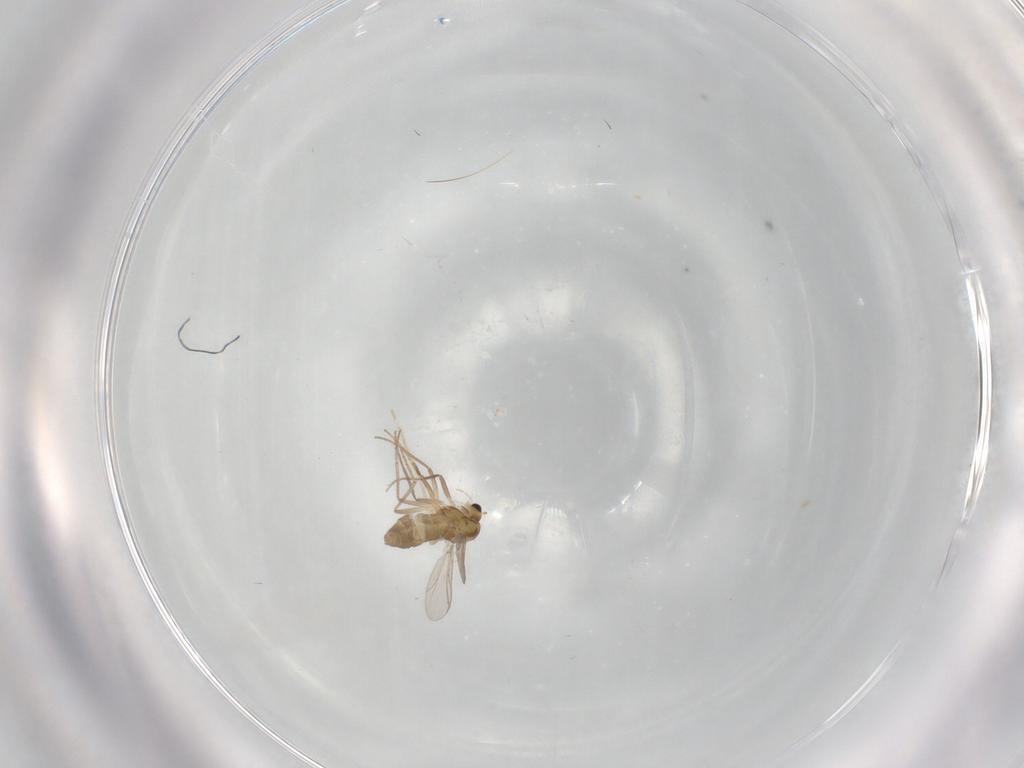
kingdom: Animalia
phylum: Arthropoda
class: Insecta
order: Diptera
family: Chironomidae
